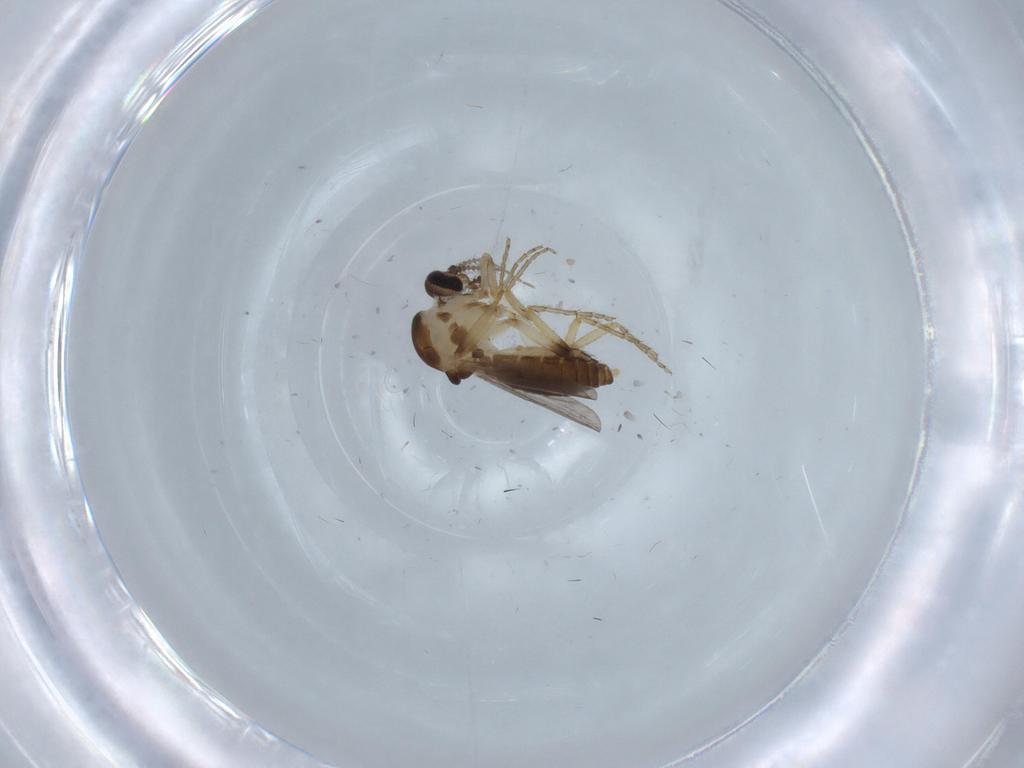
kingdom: Animalia
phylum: Arthropoda
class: Insecta
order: Diptera
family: Ceratopogonidae
